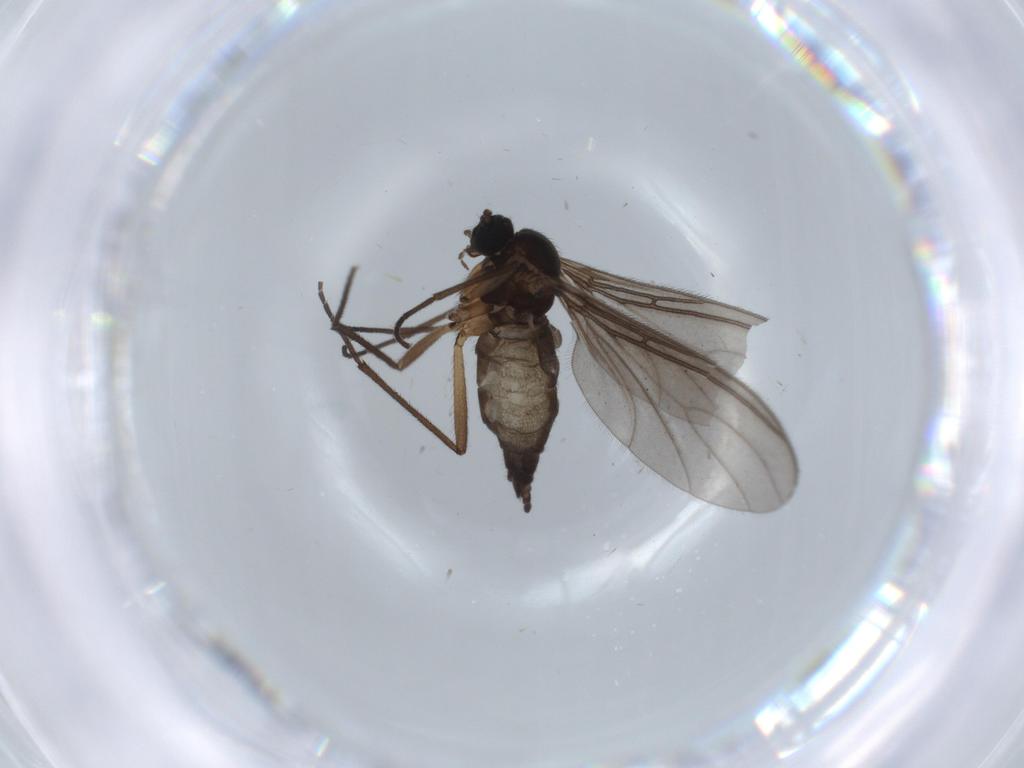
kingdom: Animalia
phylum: Arthropoda
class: Insecta
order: Diptera
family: Sciaridae
